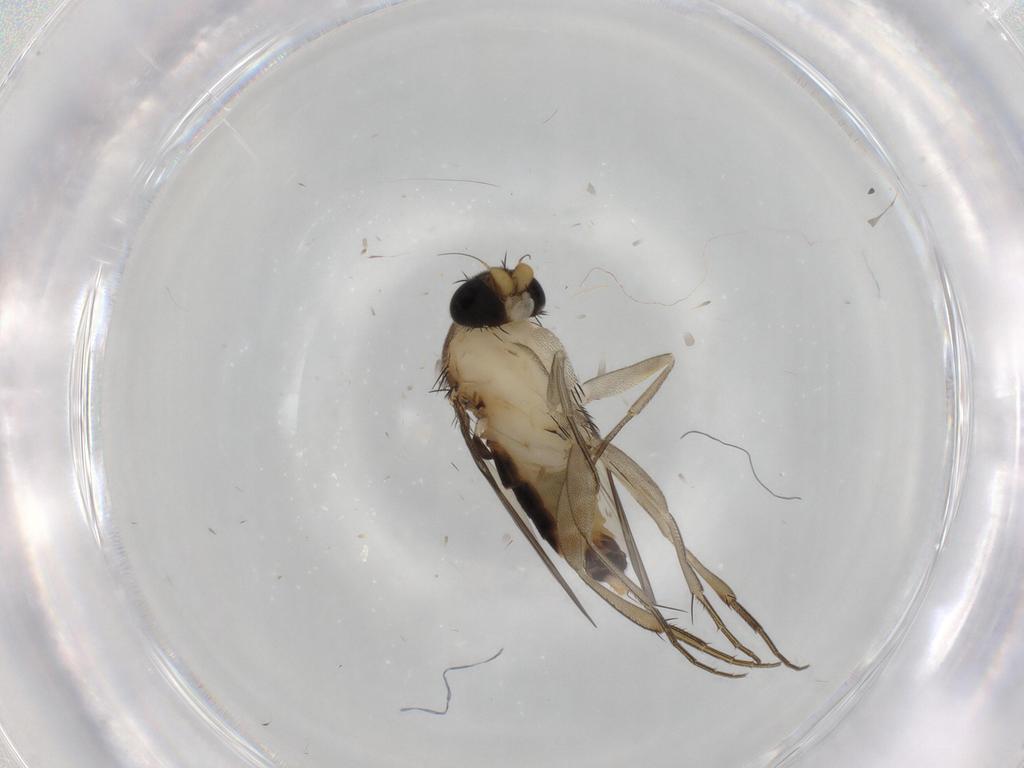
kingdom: Animalia
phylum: Arthropoda
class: Insecta
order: Diptera
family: Phoridae
